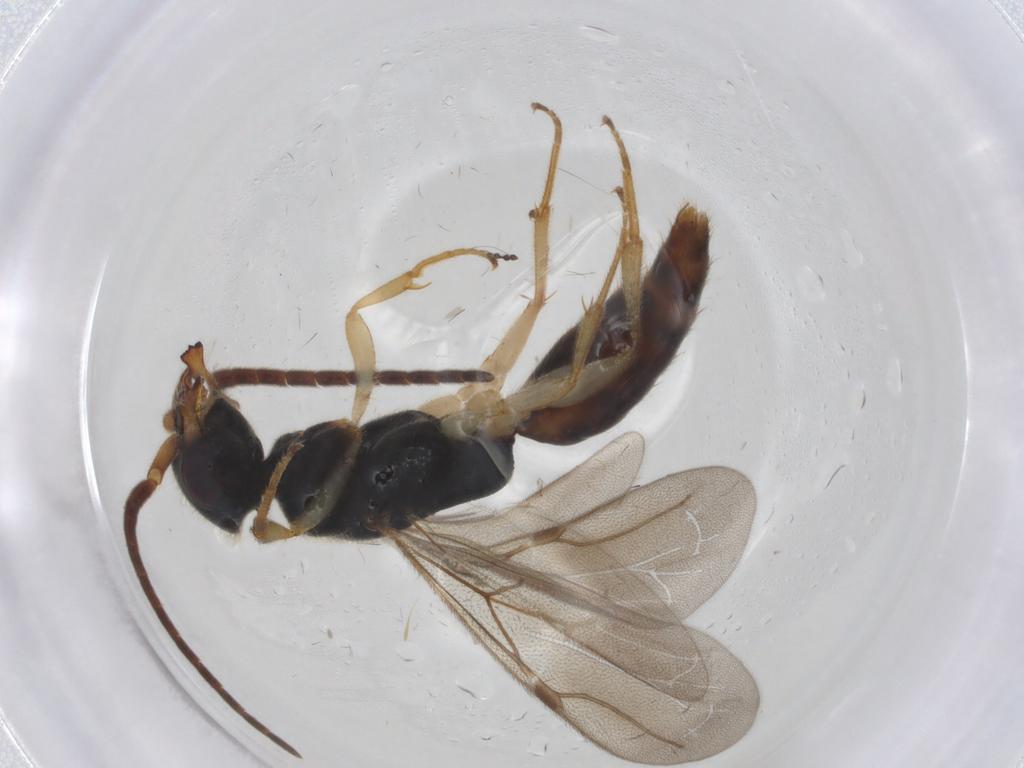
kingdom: Animalia
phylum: Arthropoda
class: Insecta
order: Hymenoptera
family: Bethylidae
